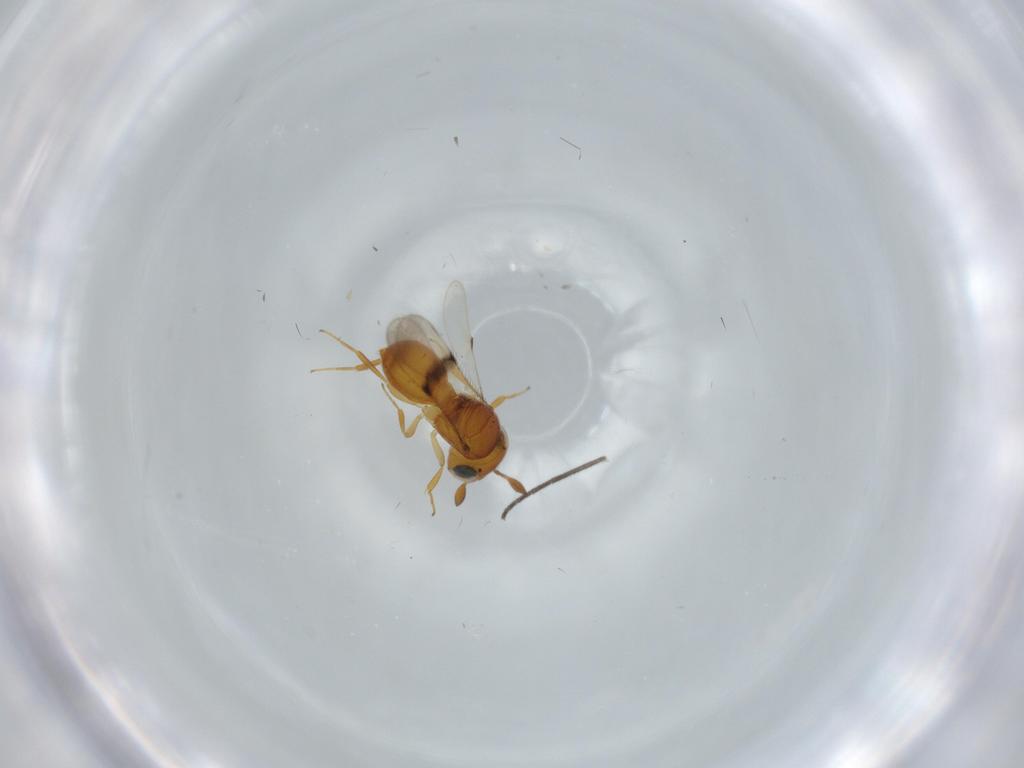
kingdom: Animalia
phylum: Arthropoda
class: Insecta
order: Hymenoptera
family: Scelionidae
